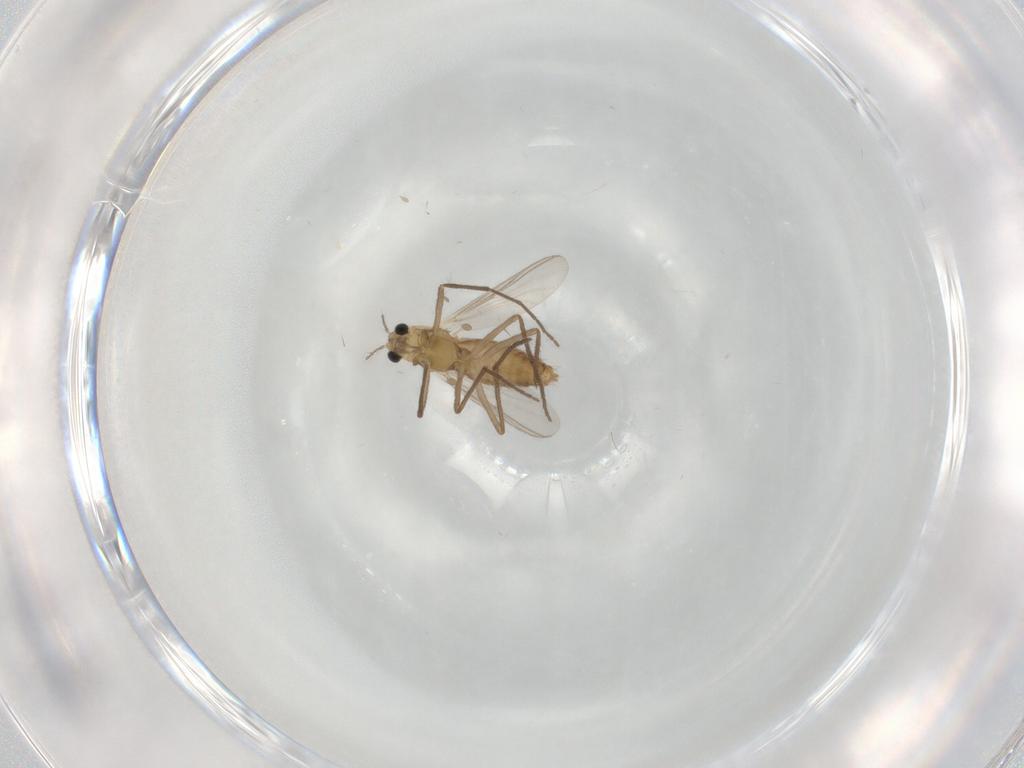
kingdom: Animalia
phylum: Arthropoda
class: Insecta
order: Diptera
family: Chironomidae
